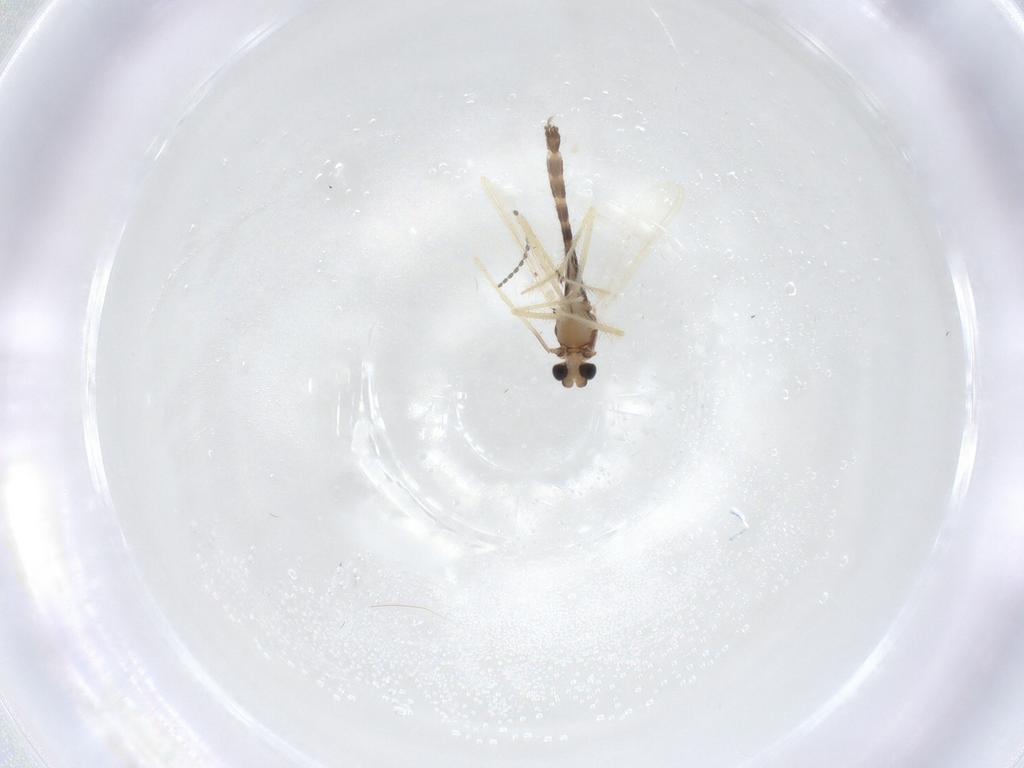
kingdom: Animalia
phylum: Arthropoda
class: Insecta
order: Diptera
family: Chironomidae
